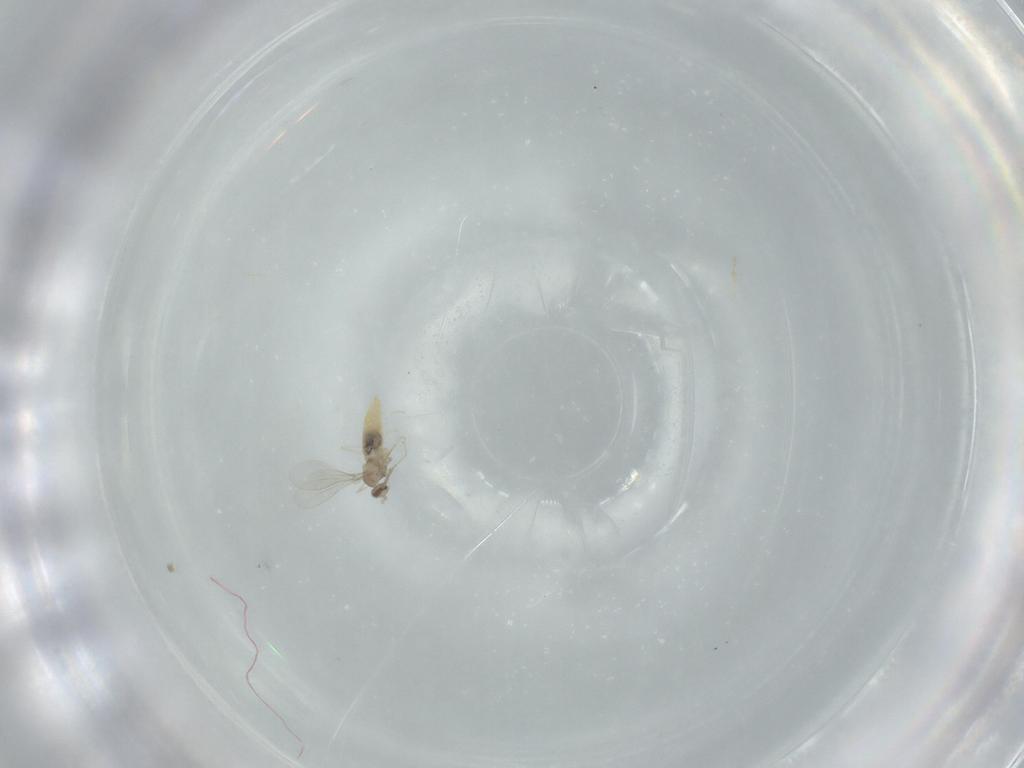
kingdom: Animalia
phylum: Arthropoda
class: Insecta
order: Diptera
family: Cecidomyiidae
